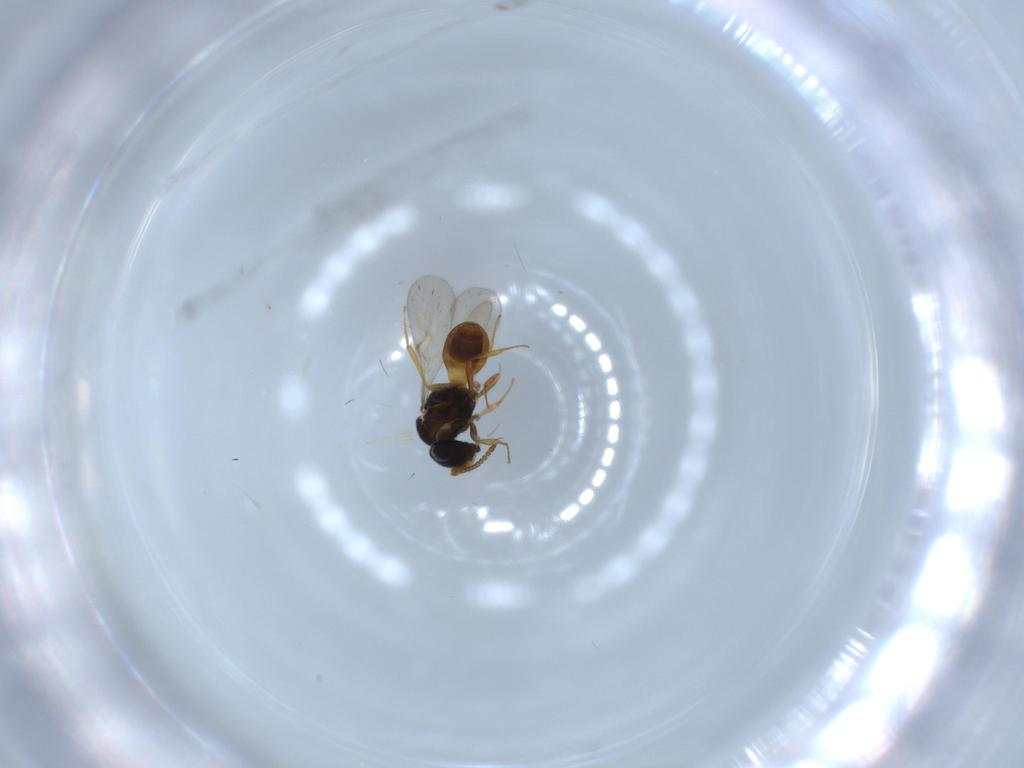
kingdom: Animalia
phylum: Arthropoda
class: Insecta
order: Hymenoptera
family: Scelionidae
